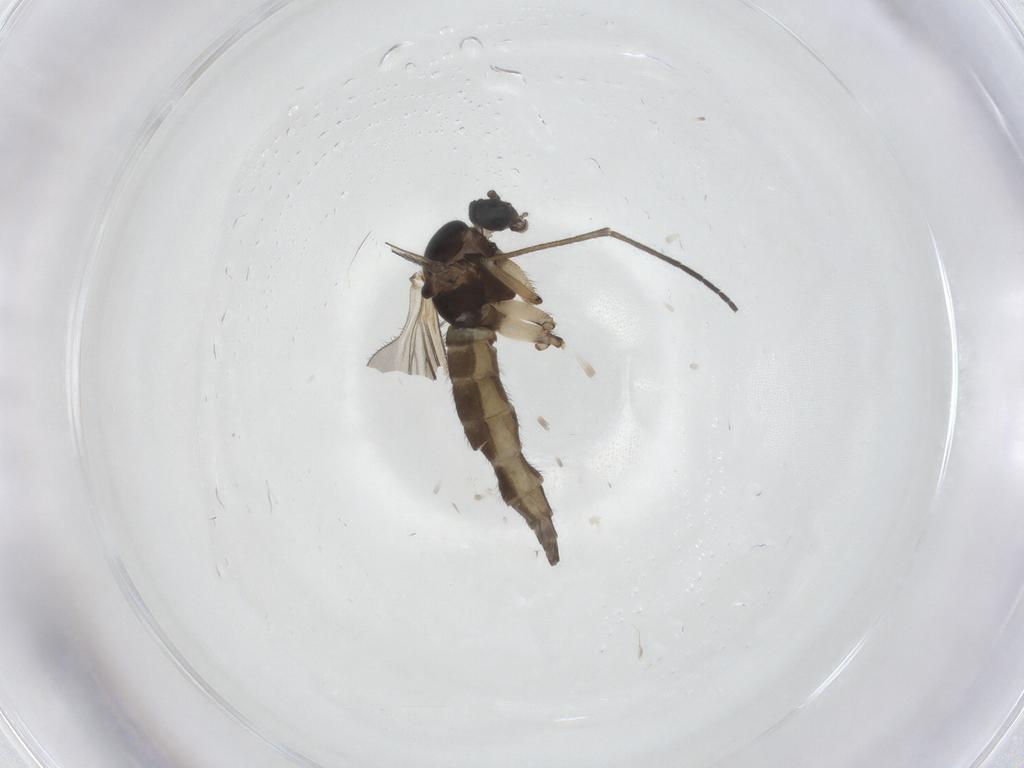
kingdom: Animalia
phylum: Arthropoda
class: Insecta
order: Diptera
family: Sciaridae
